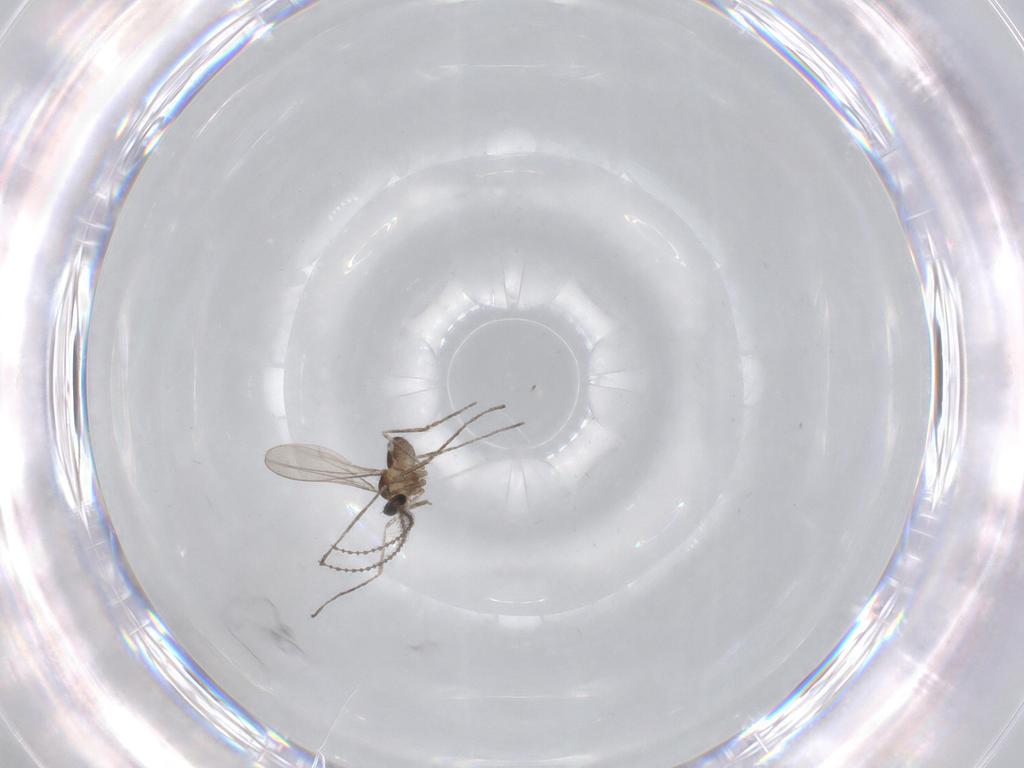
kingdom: Animalia
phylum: Arthropoda
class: Insecta
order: Diptera
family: Cecidomyiidae
